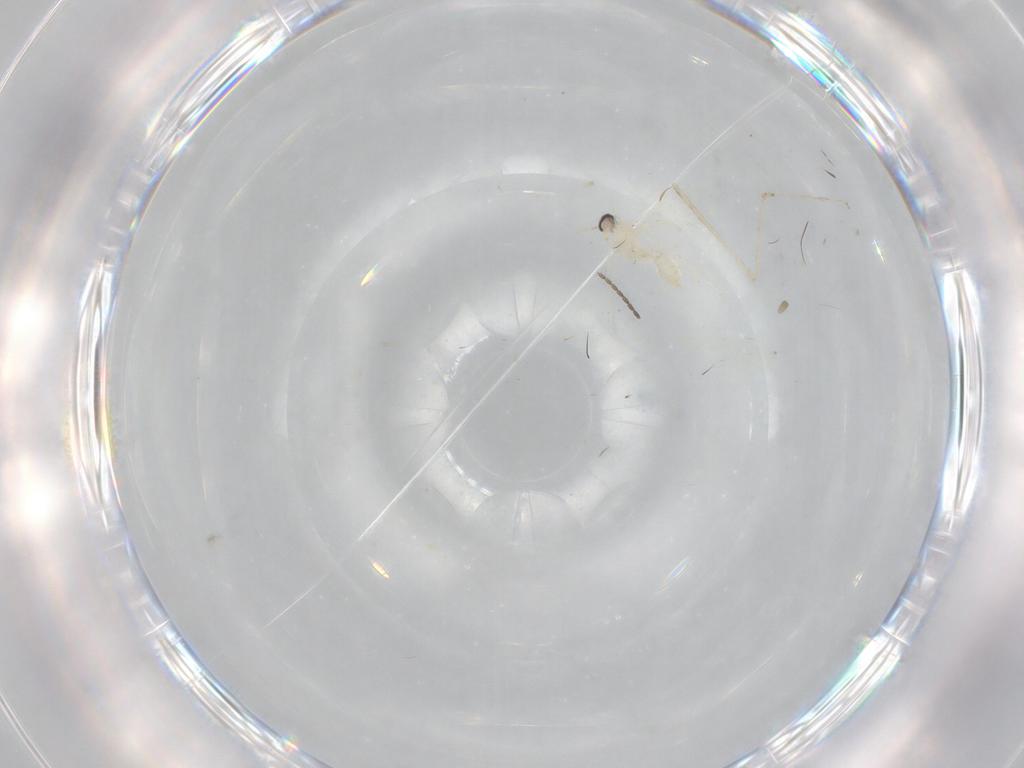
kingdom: Animalia
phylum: Arthropoda
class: Insecta
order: Diptera
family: Cecidomyiidae
